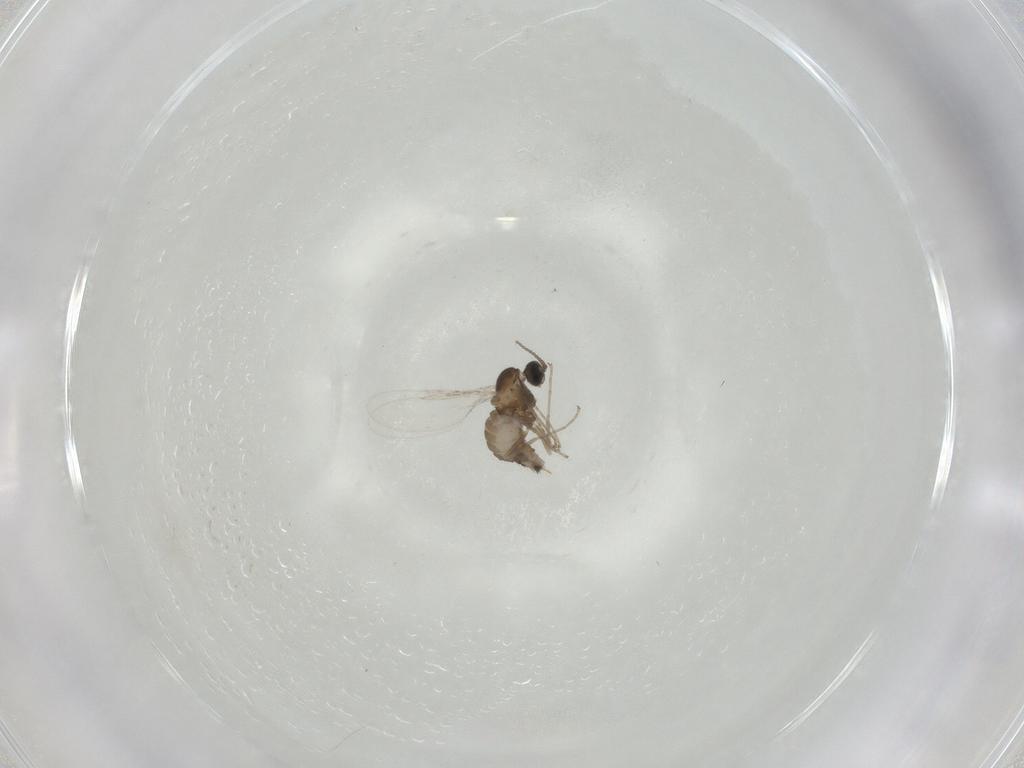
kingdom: Animalia
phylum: Arthropoda
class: Insecta
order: Diptera
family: Cecidomyiidae
